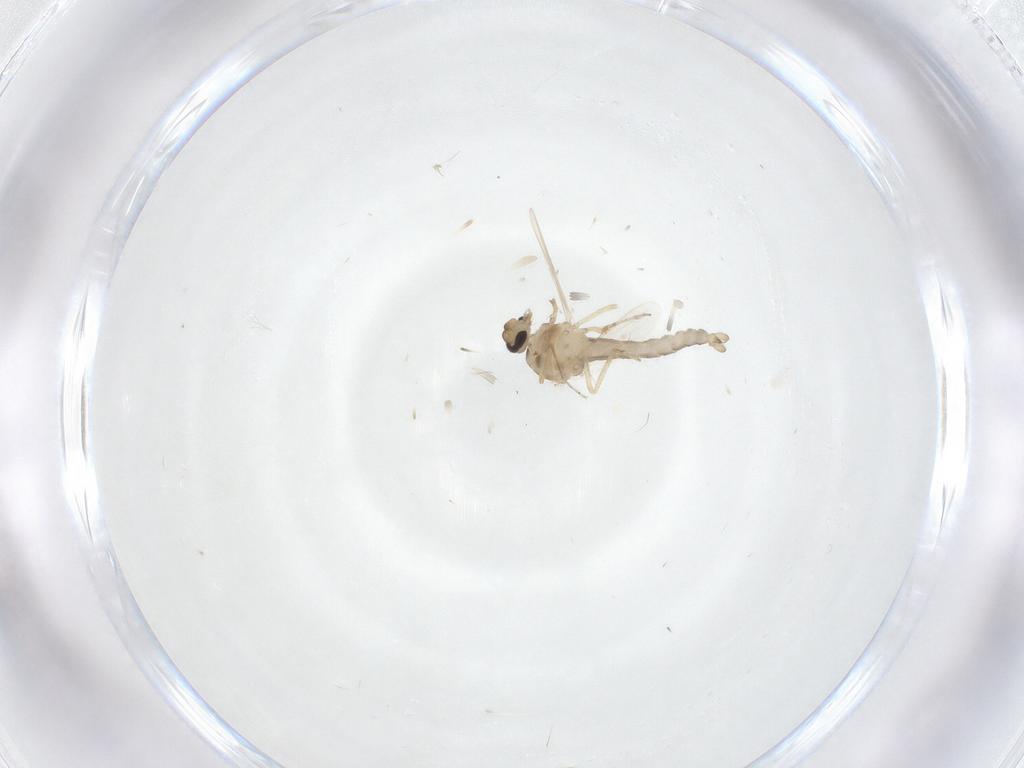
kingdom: Animalia
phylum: Arthropoda
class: Insecta
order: Diptera
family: Ceratopogonidae
